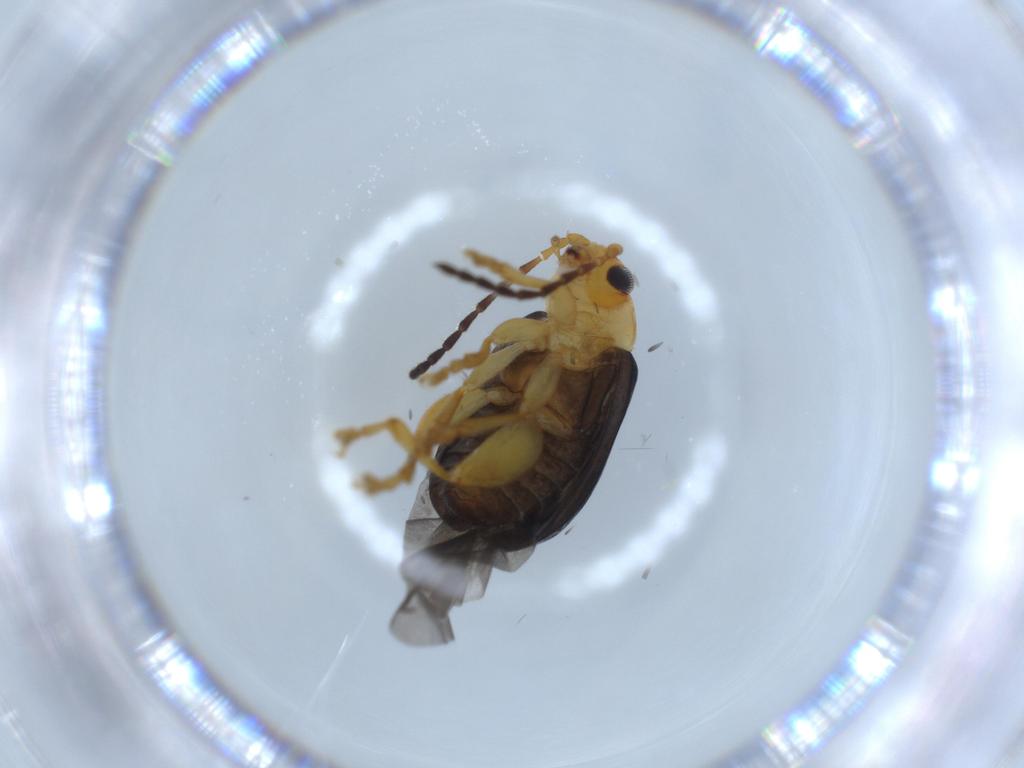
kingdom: Animalia
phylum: Arthropoda
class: Insecta
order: Coleoptera
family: Chrysomelidae
